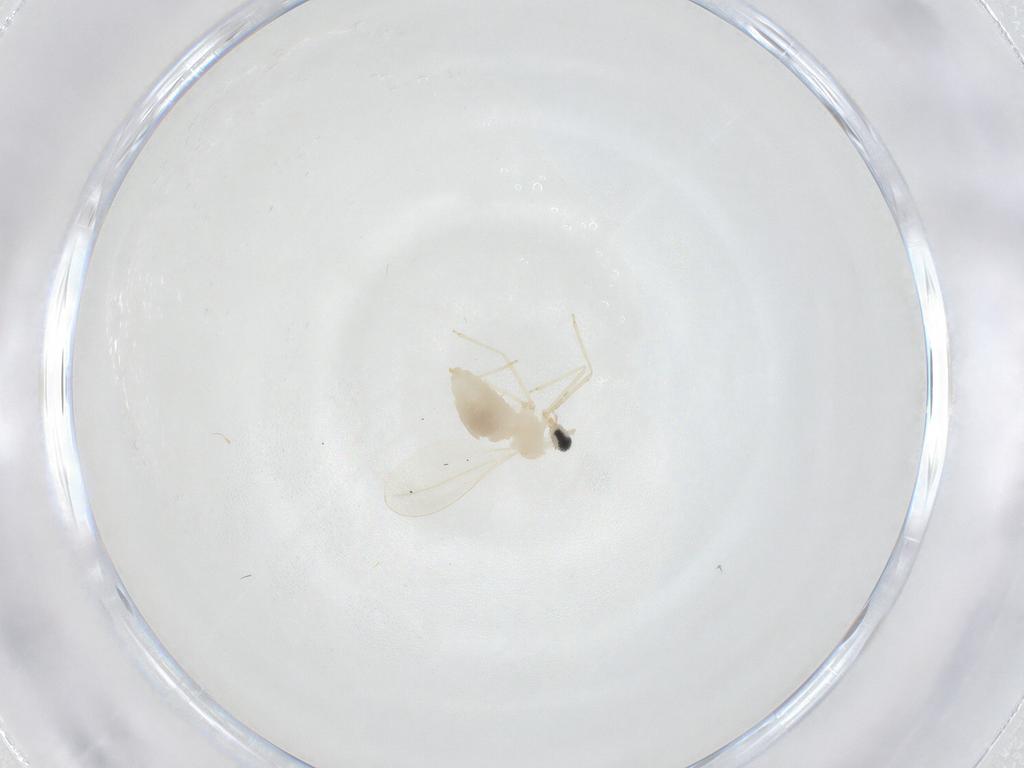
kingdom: Animalia
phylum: Arthropoda
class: Insecta
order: Diptera
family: Cecidomyiidae
